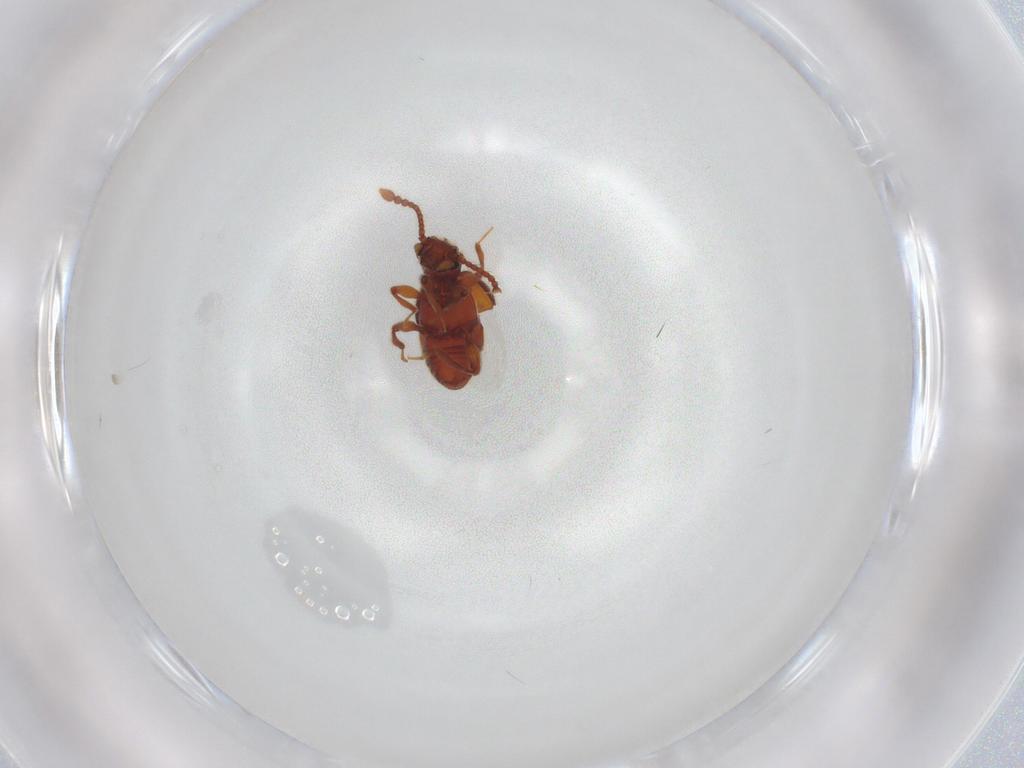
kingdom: Animalia
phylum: Arthropoda
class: Insecta
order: Coleoptera
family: Staphylinidae
